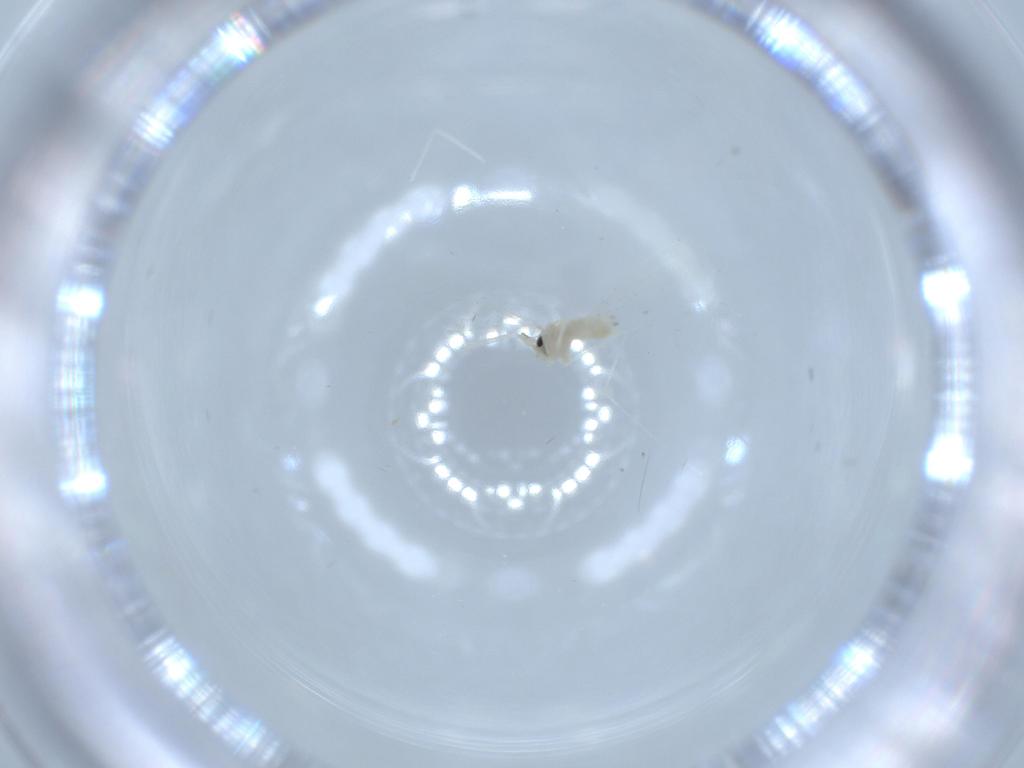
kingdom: Animalia
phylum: Arthropoda
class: Insecta
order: Diptera
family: Cecidomyiidae
